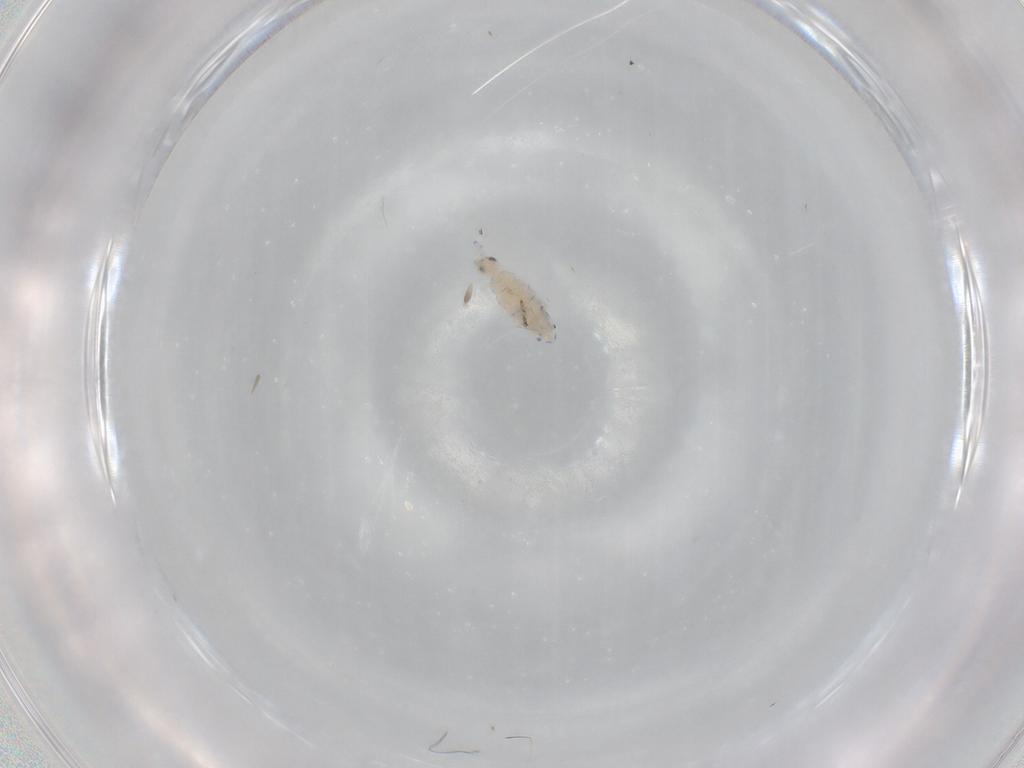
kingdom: Animalia
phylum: Arthropoda
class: Collembola
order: Entomobryomorpha
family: Entomobryidae
